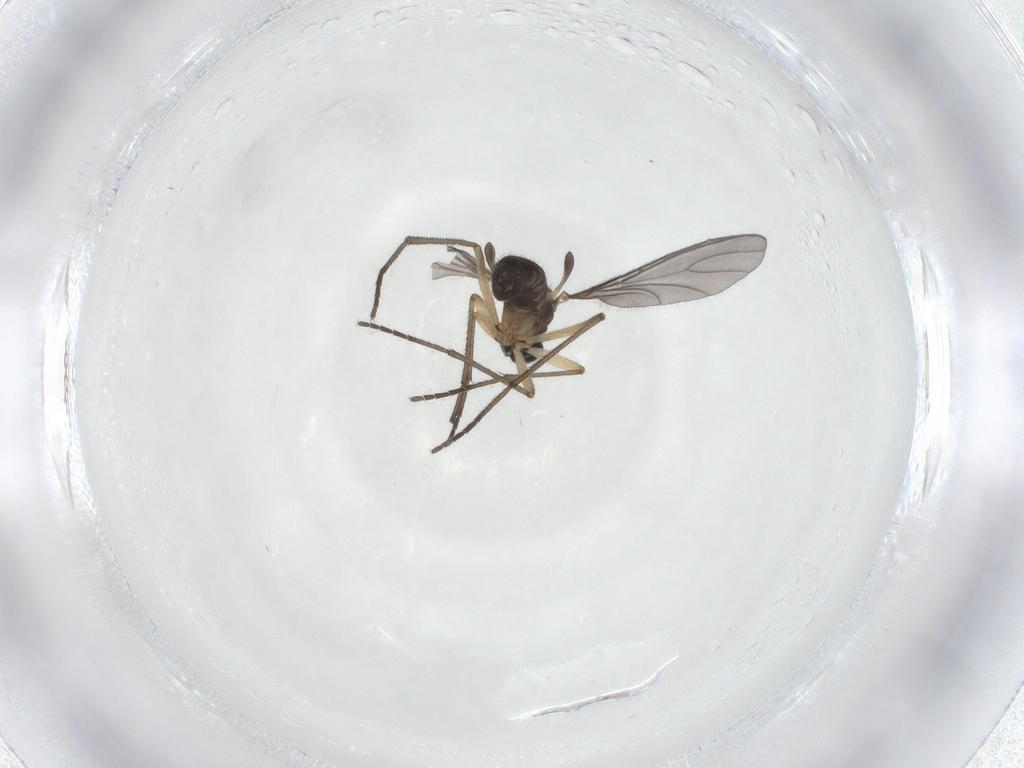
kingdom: Animalia
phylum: Arthropoda
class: Insecta
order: Diptera
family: Sciaridae
